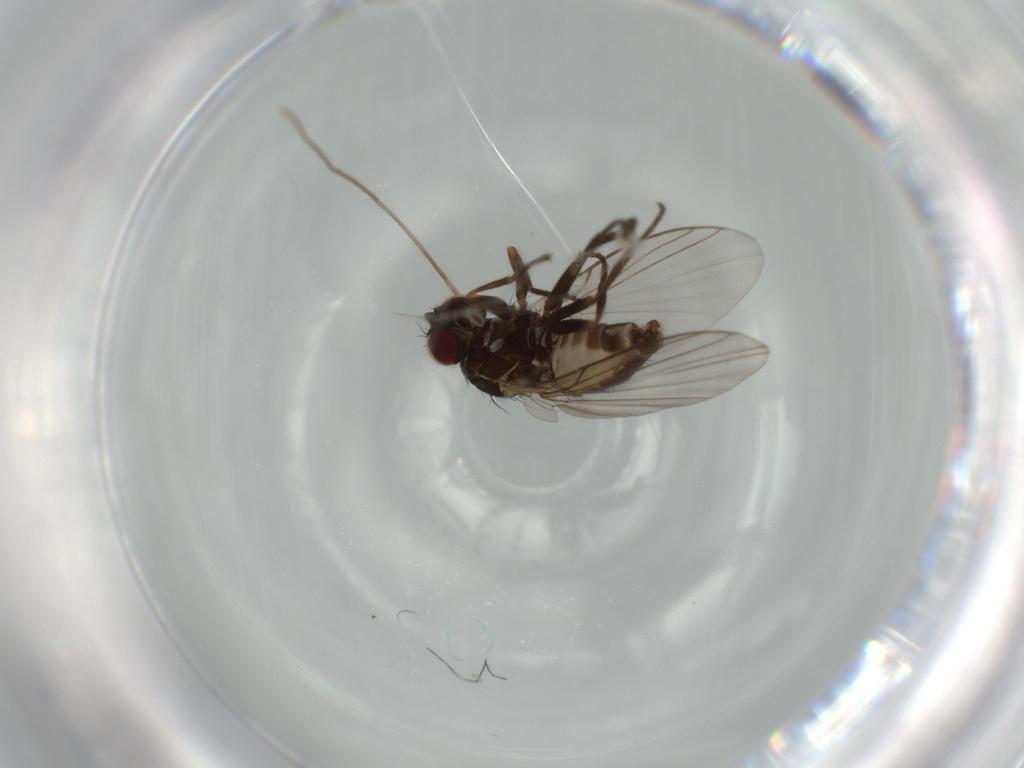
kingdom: Animalia
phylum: Arthropoda
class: Insecta
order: Diptera
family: Agromyzidae
